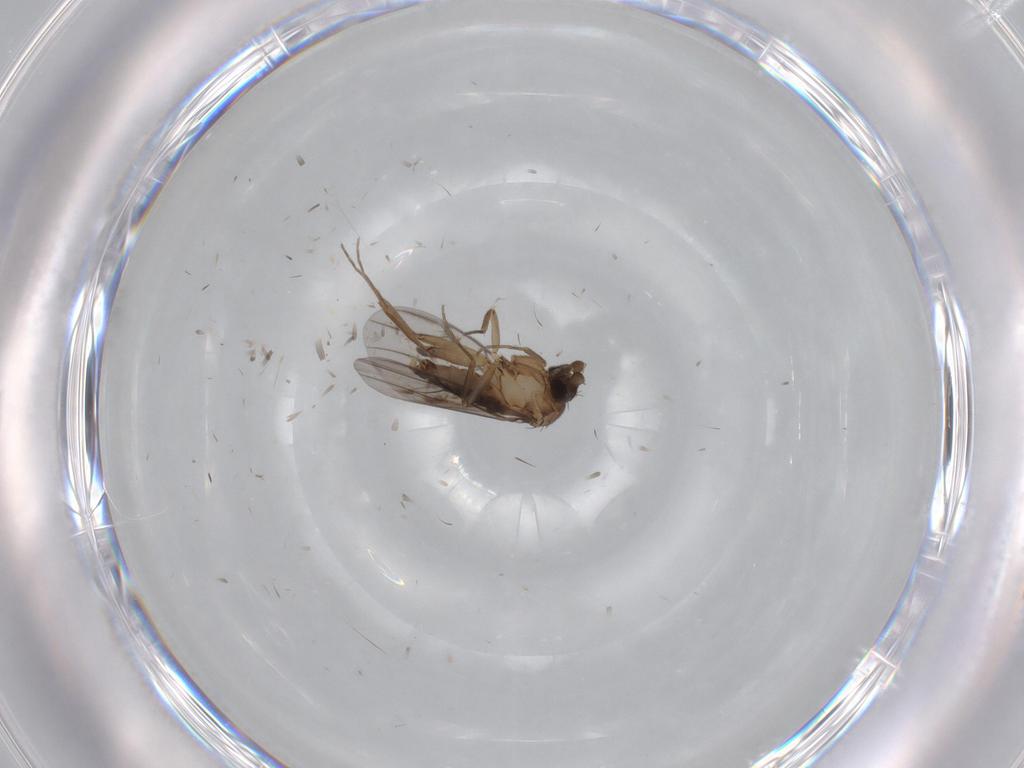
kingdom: Animalia
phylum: Arthropoda
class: Insecta
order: Diptera
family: Phoridae
